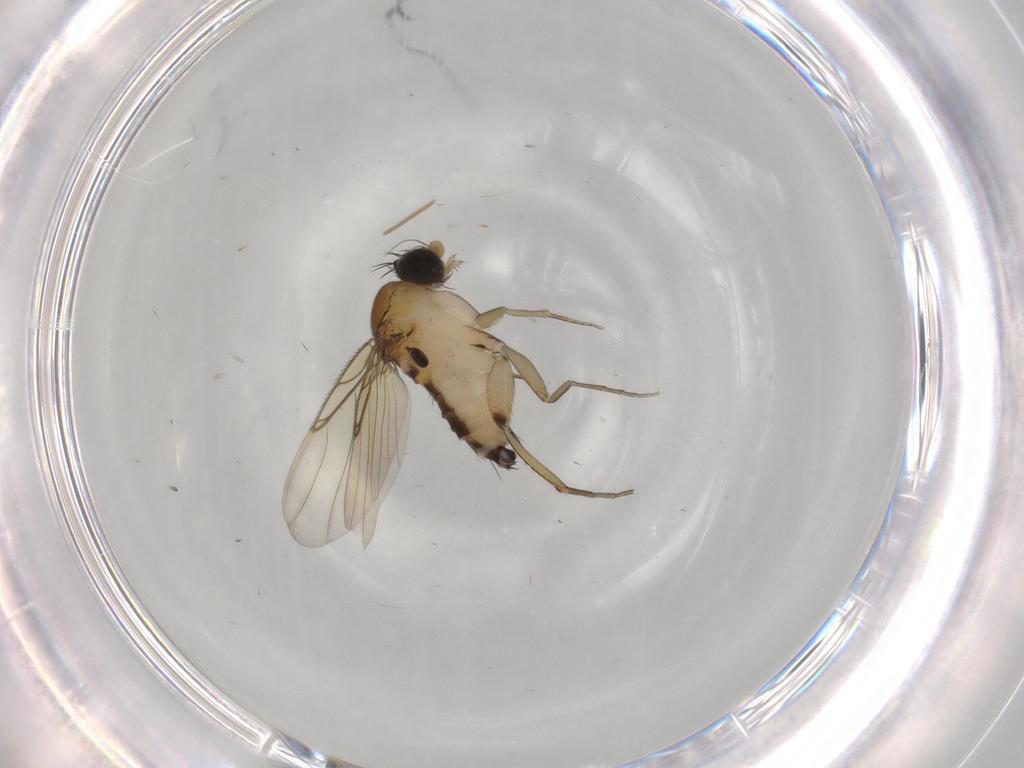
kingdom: Animalia
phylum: Arthropoda
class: Insecta
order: Diptera
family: Phoridae
